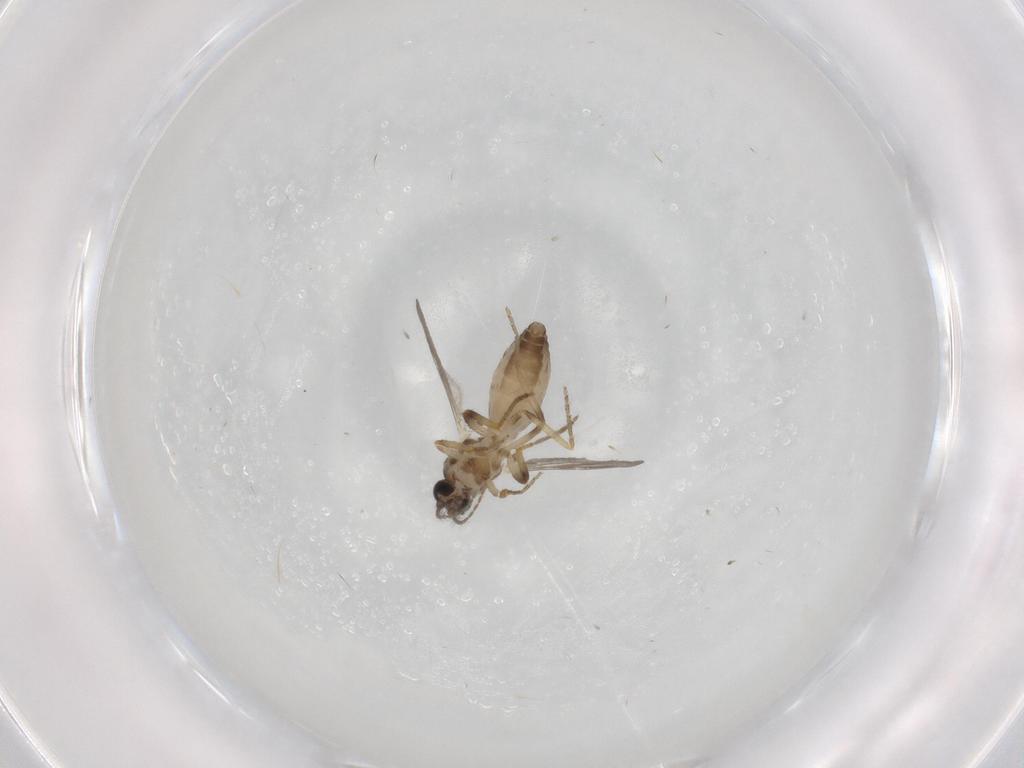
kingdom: Animalia
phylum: Arthropoda
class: Insecta
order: Diptera
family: Ceratopogonidae
